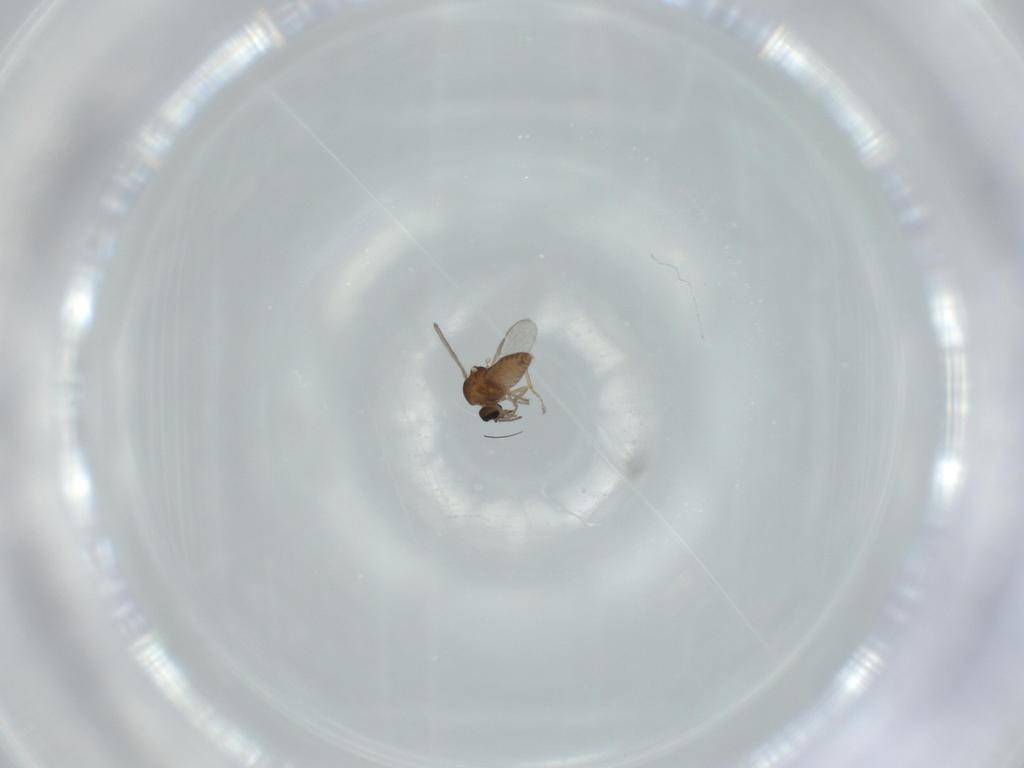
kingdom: Animalia
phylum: Arthropoda
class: Insecta
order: Diptera
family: Ceratopogonidae
